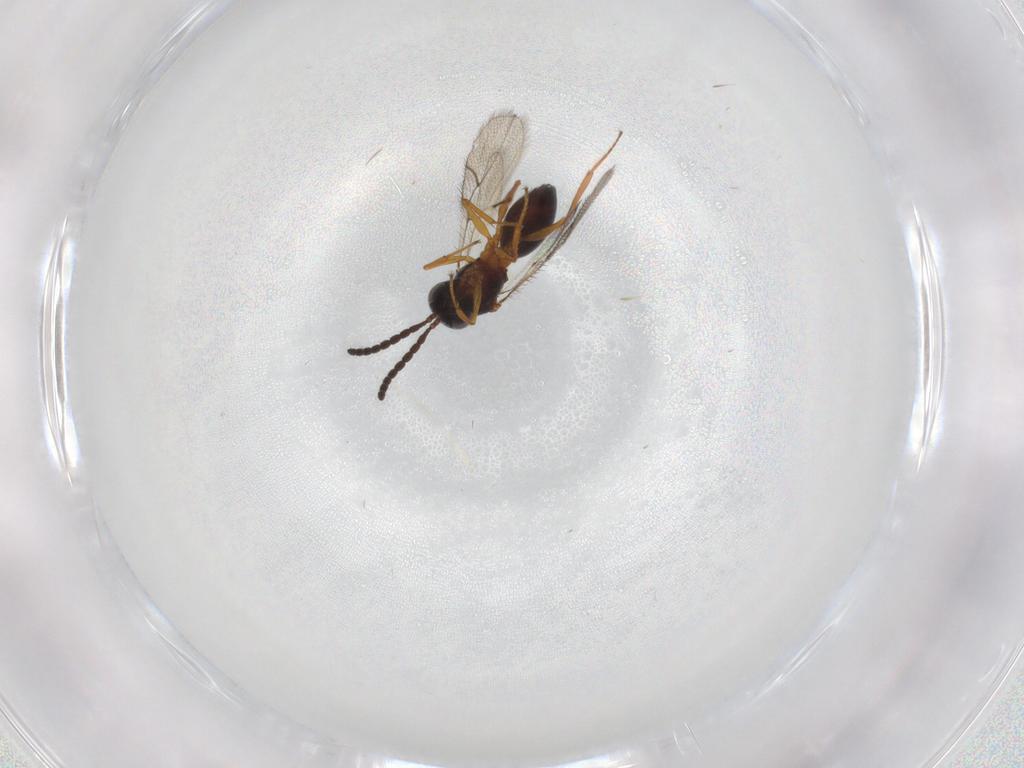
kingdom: Animalia
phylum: Arthropoda
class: Insecta
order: Hymenoptera
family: Figitidae
